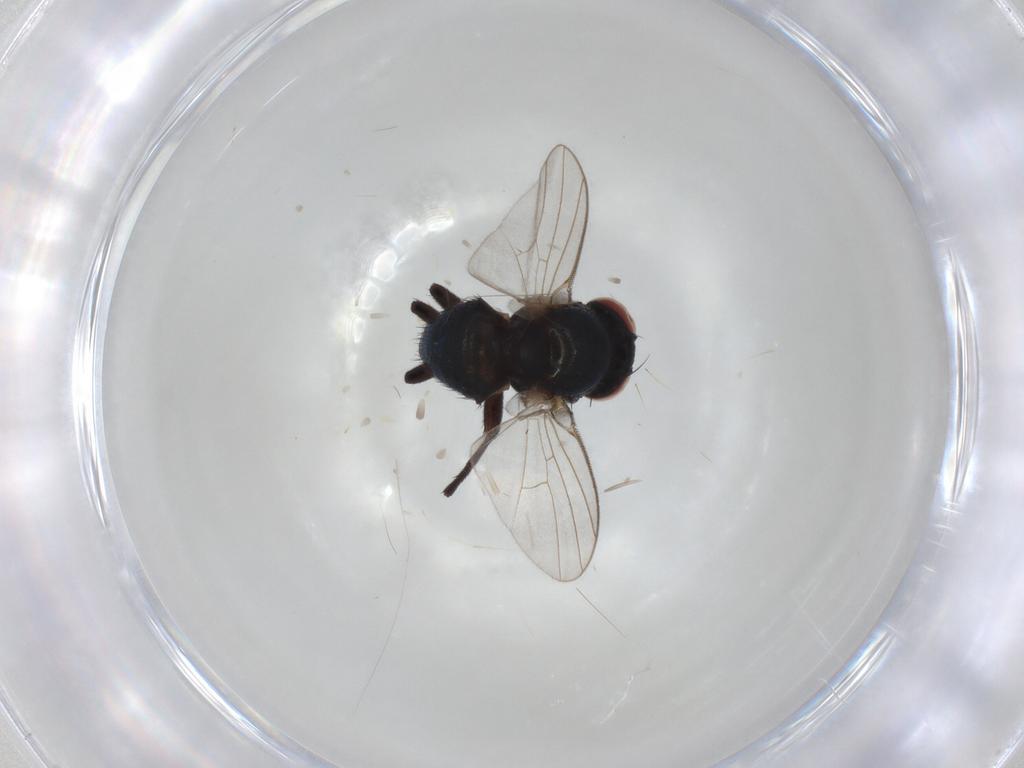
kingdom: Animalia
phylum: Arthropoda
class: Insecta
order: Diptera
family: Agromyzidae
